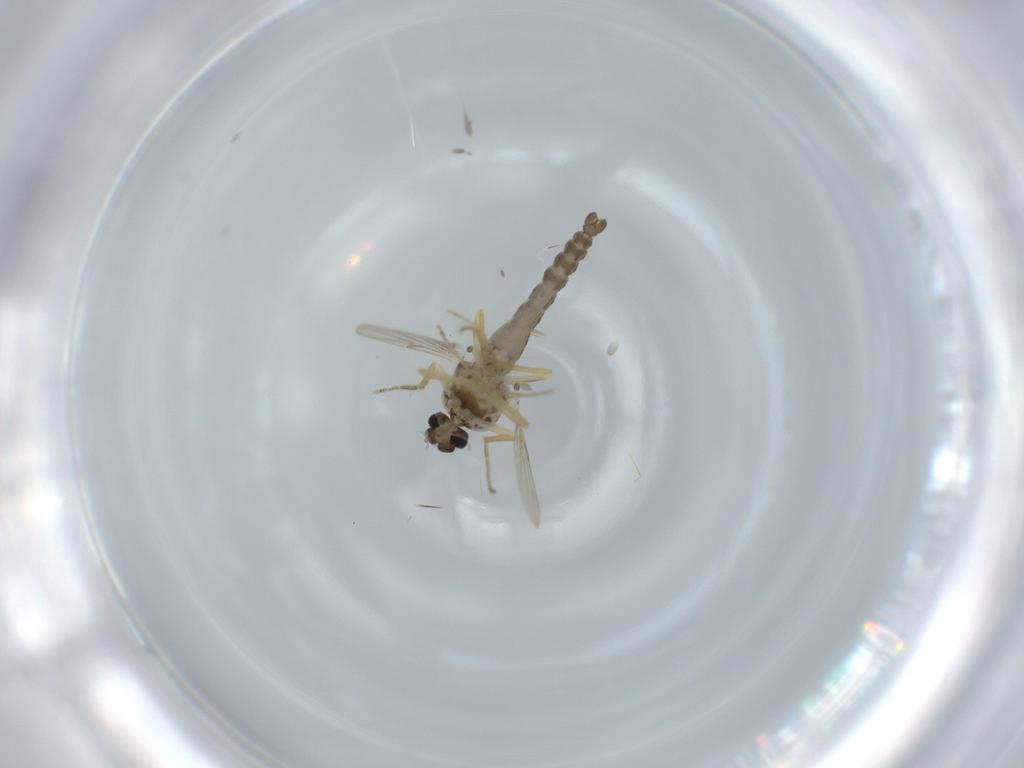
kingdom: Animalia
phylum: Arthropoda
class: Insecta
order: Diptera
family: Ceratopogonidae
